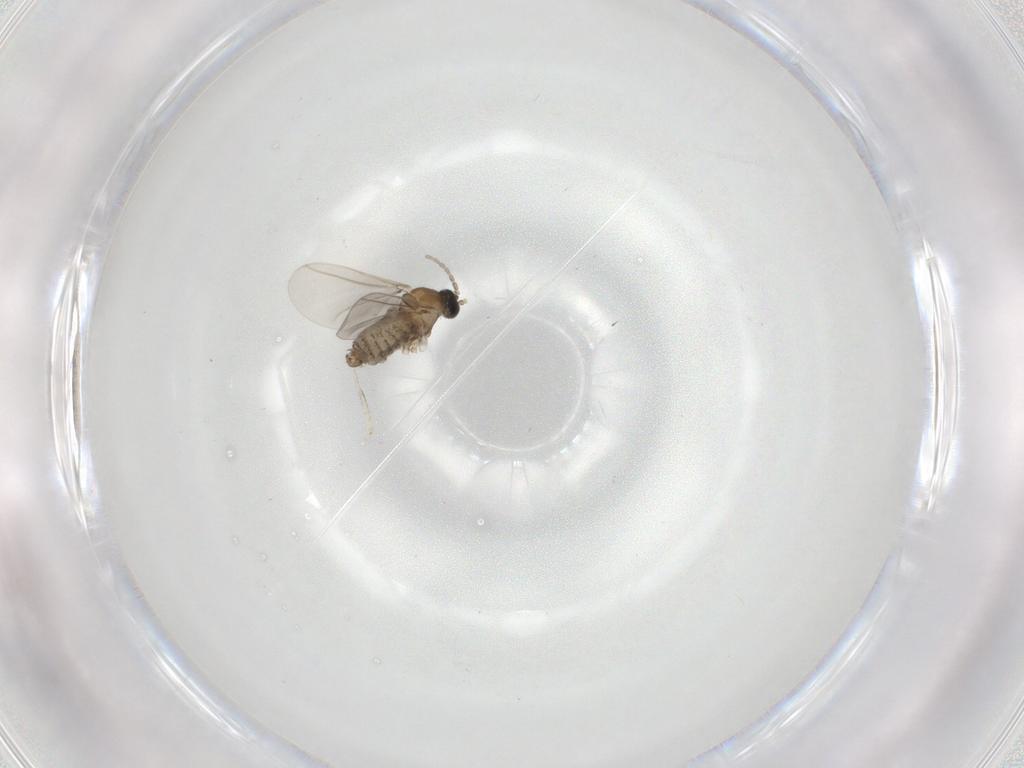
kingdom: Animalia
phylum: Arthropoda
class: Insecta
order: Diptera
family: Cecidomyiidae
